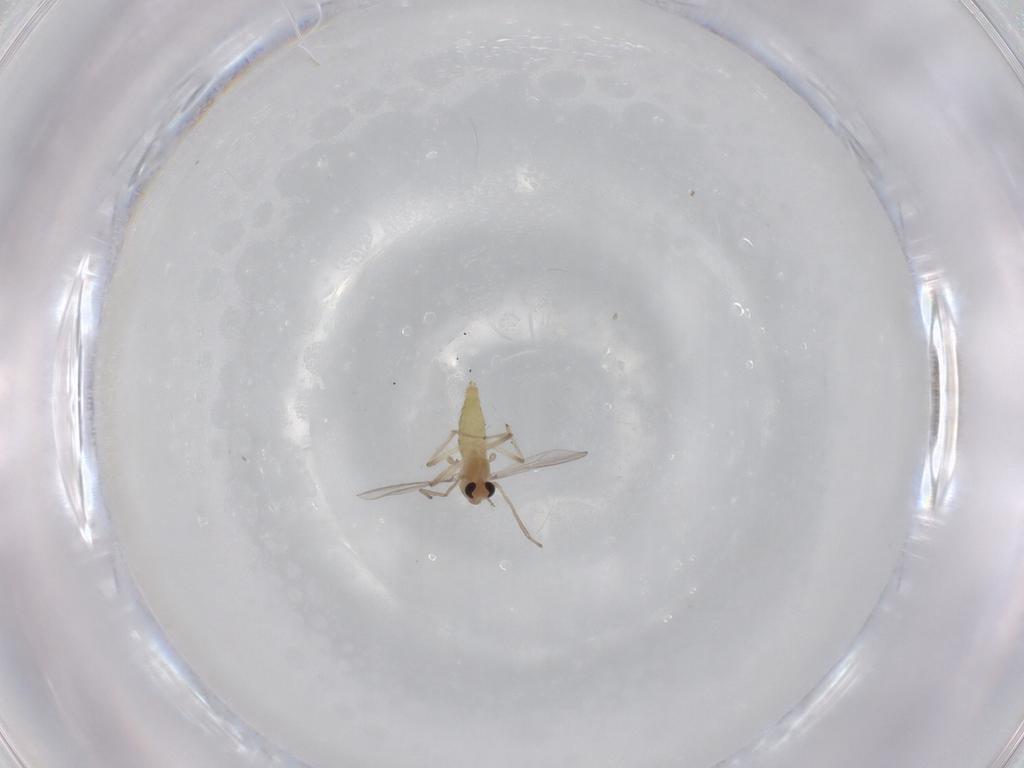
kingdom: Animalia
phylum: Arthropoda
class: Insecta
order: Diptera
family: Chironomidae
